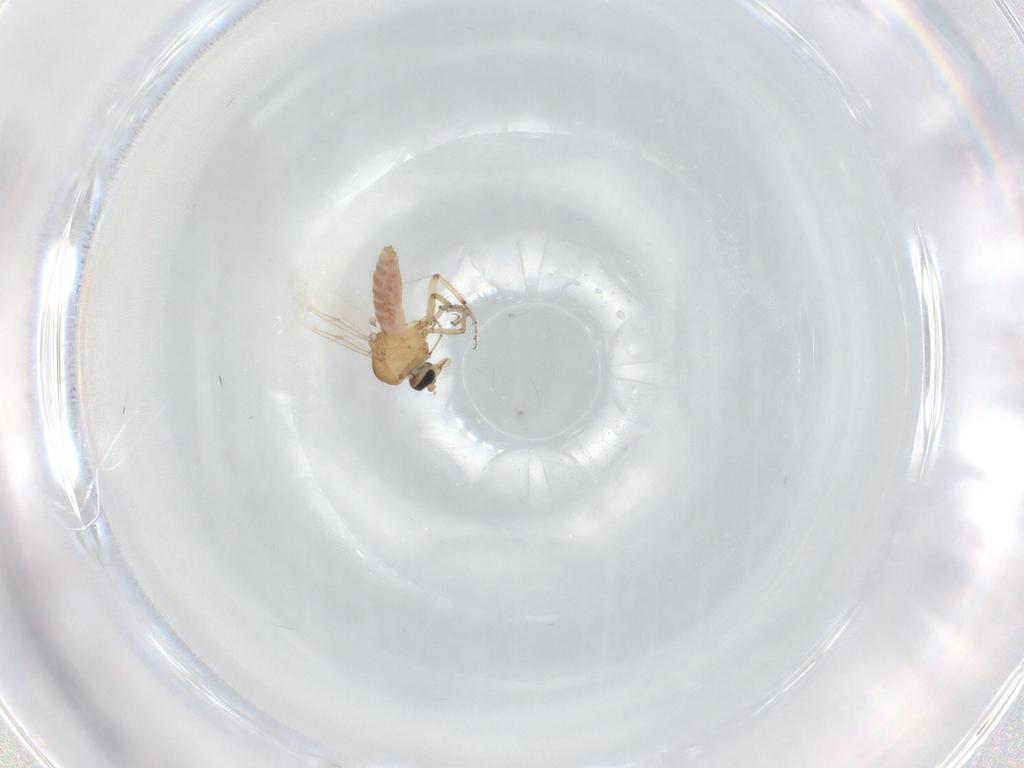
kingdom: Animalia
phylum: Arthropoda
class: Insecta
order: Diptera
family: Ceratopogonidae
